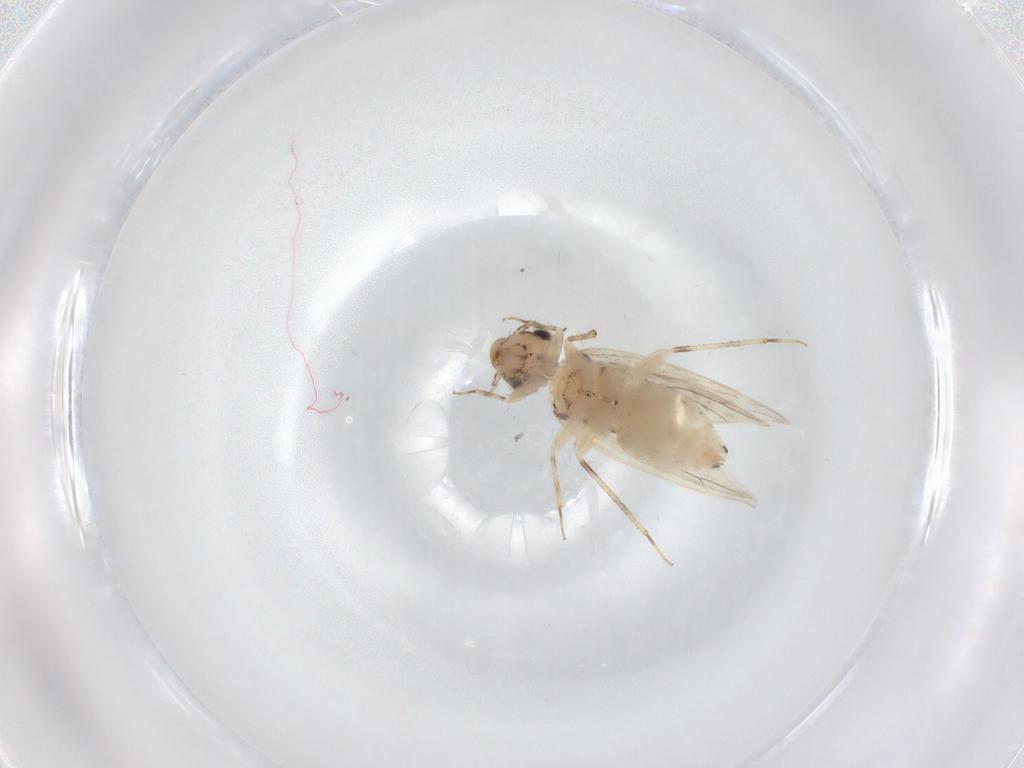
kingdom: Animalia
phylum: Arthropoda
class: Insecta
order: Psocodea
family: Lepidopsocidae
